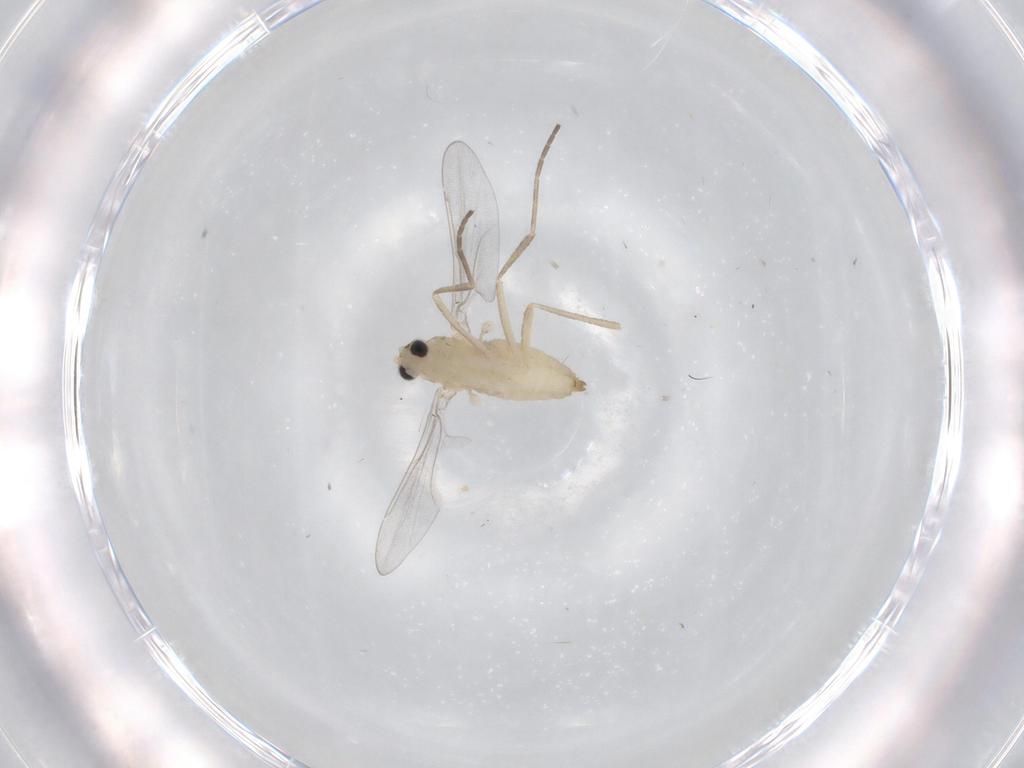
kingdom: Animalia
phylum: Arthropoda
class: Insecta
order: Diptera
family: Cecidomyiidae
